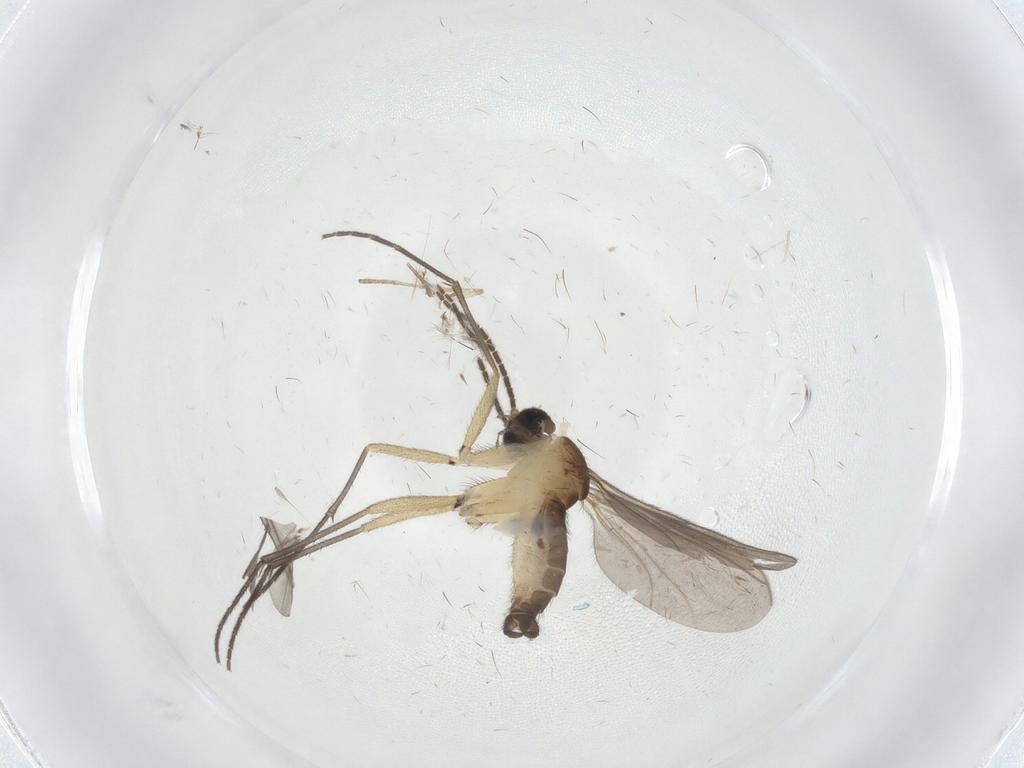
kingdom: Animalia
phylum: Arthropoda
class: Insecta
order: Diptera
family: Sciaridae
